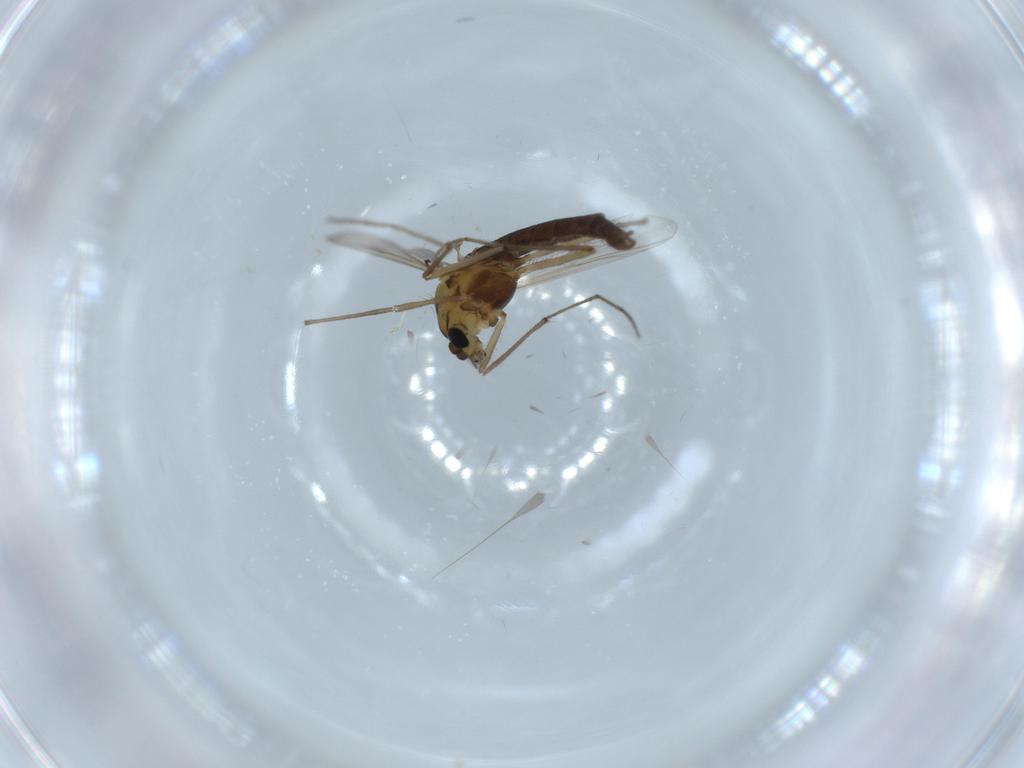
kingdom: Animalia
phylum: Arthropoda
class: Insecta
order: Diptera
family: Chironomidae
